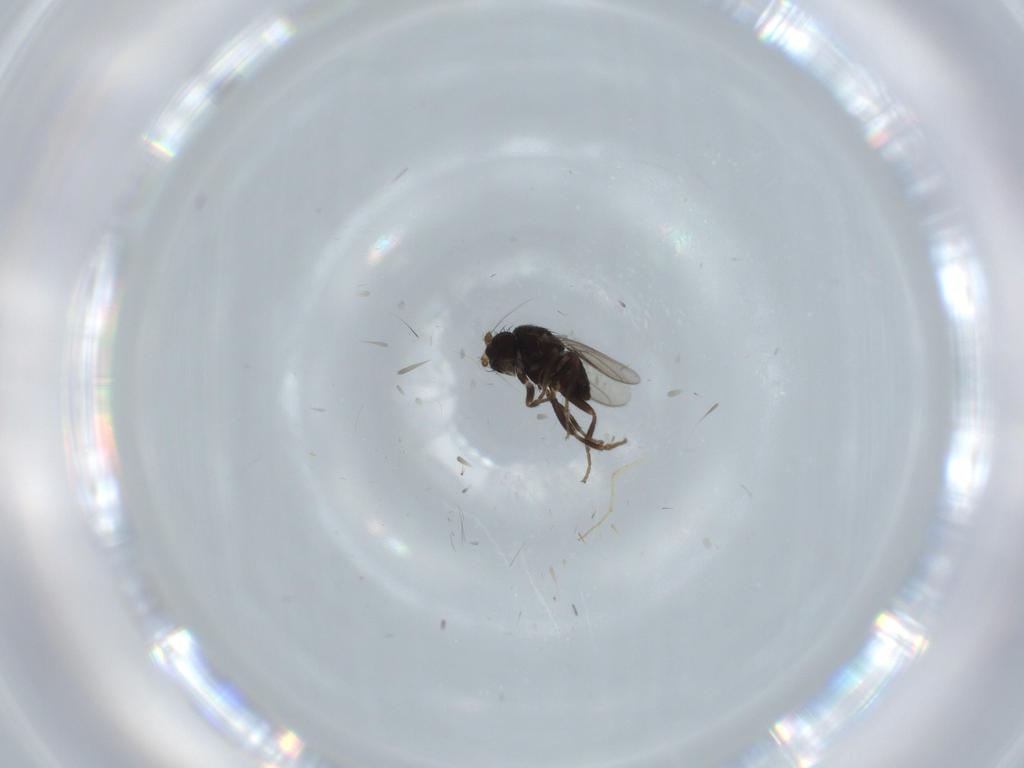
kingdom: Animalia
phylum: Arthropoda
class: Insecta
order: Diptera
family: Sphaeroceridae
